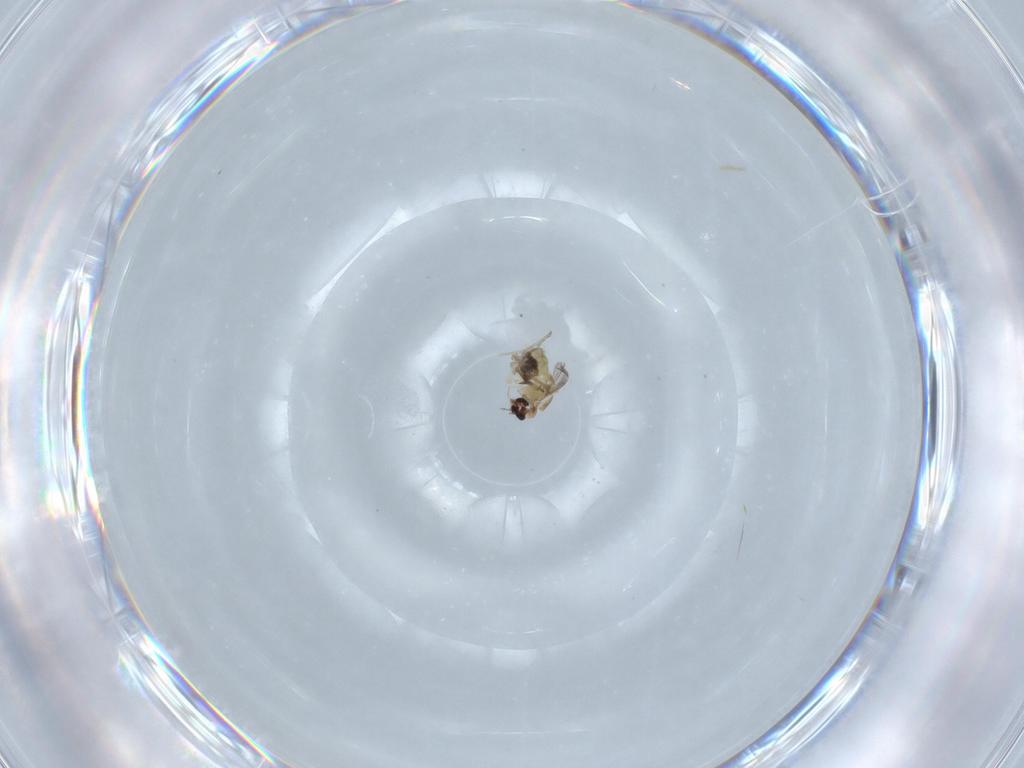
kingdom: Animalia
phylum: Arthropoda
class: Insecta
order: Diptera
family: Chironomidae
